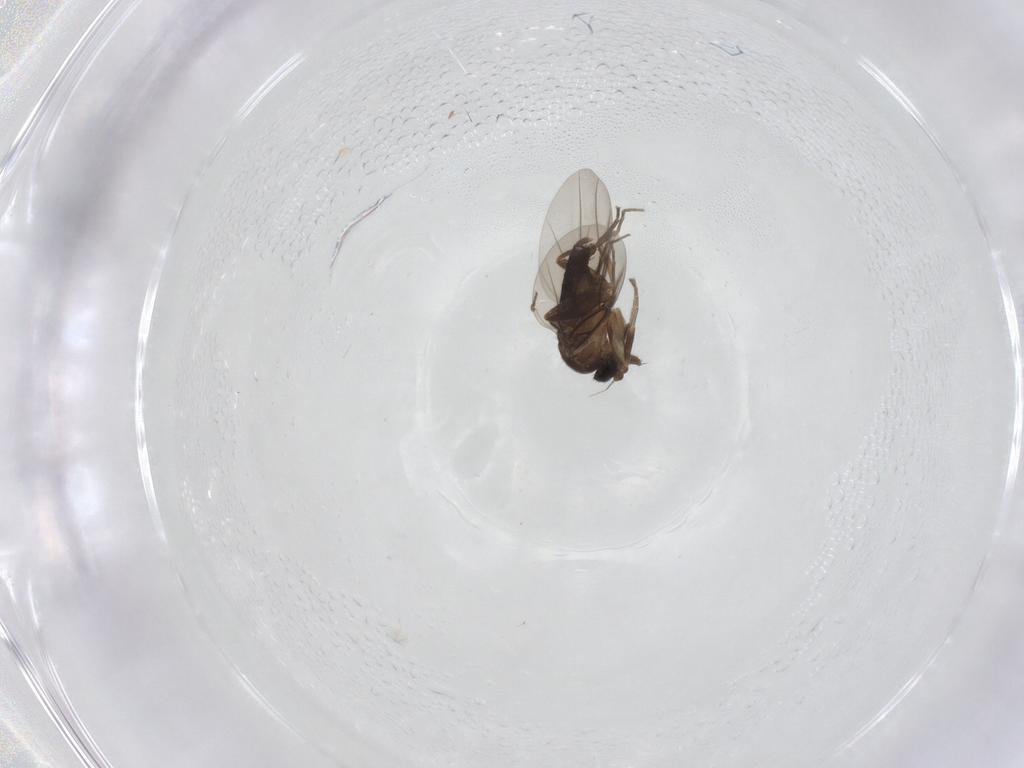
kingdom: Animalia
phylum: Arthropoda
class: Insecta
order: Diptera
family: Phoridae
